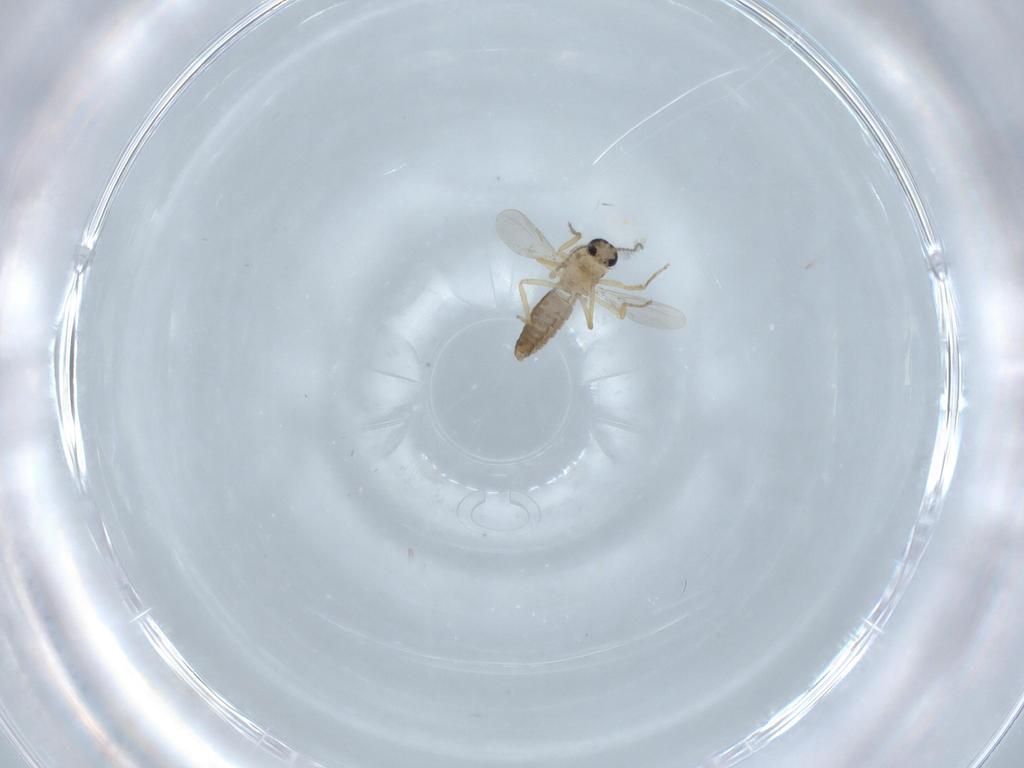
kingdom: Animalia
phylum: Arthropoda
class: Insecta
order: Diptera
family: Ceratopogonidae
